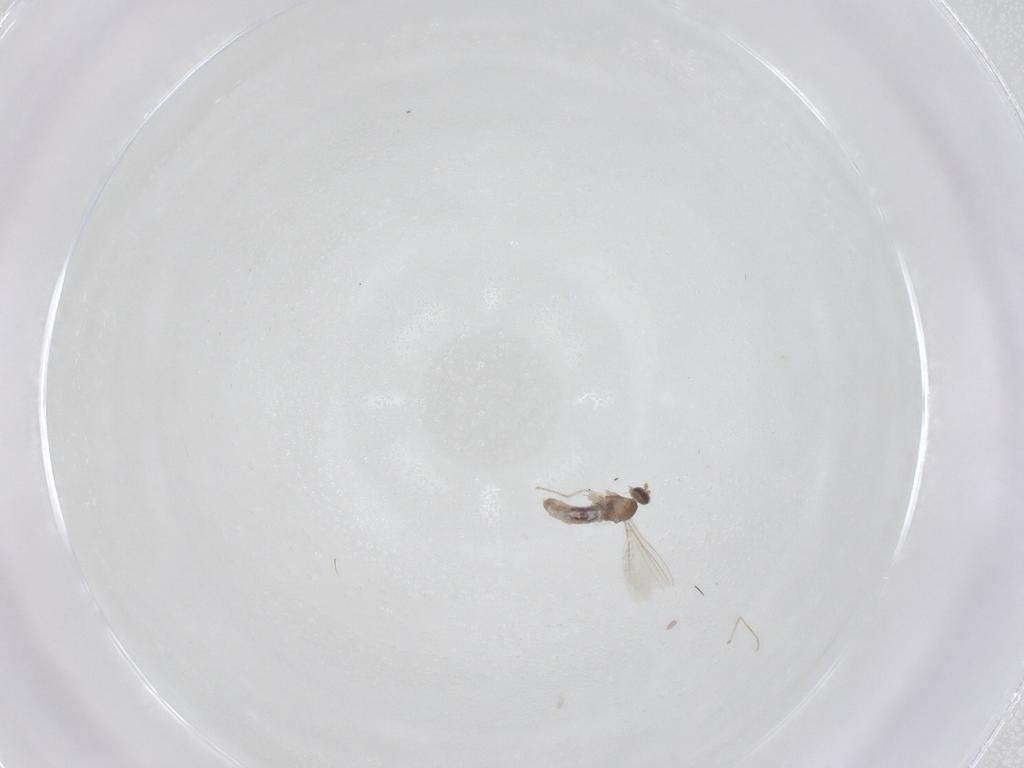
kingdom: Animalia
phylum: Arthropoda
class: Insecta
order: Diptera
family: Cecidomyiidae
